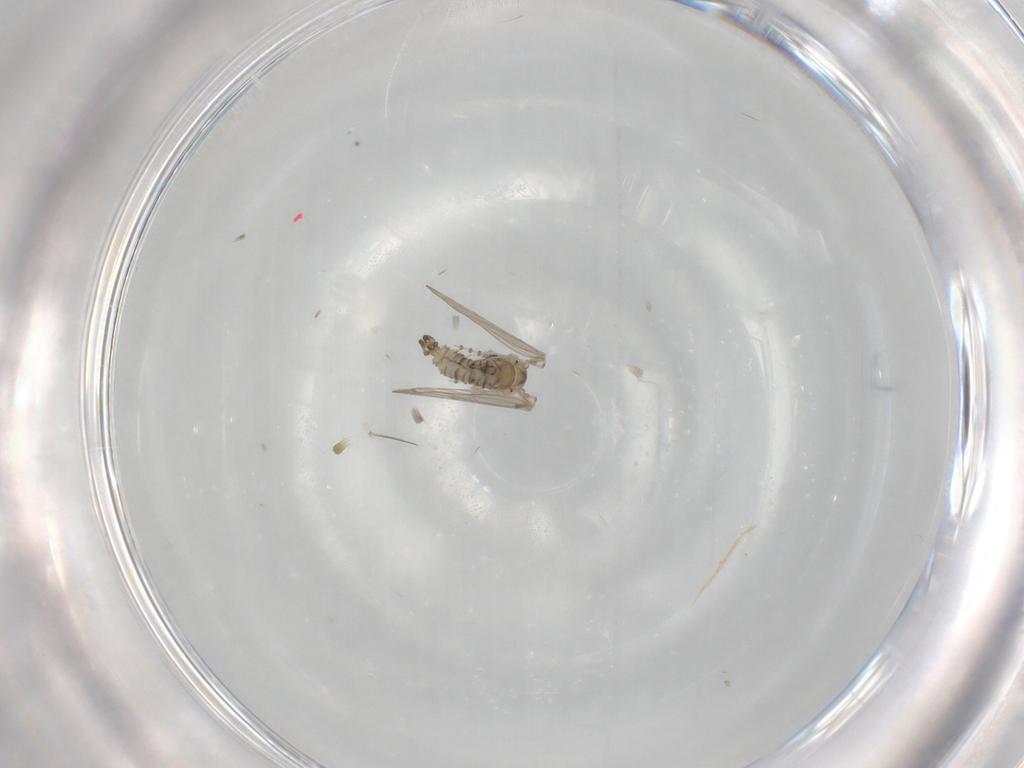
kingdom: Animalia
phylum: Arthropoda
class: Insecta
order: Diptera
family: Psychodidae
